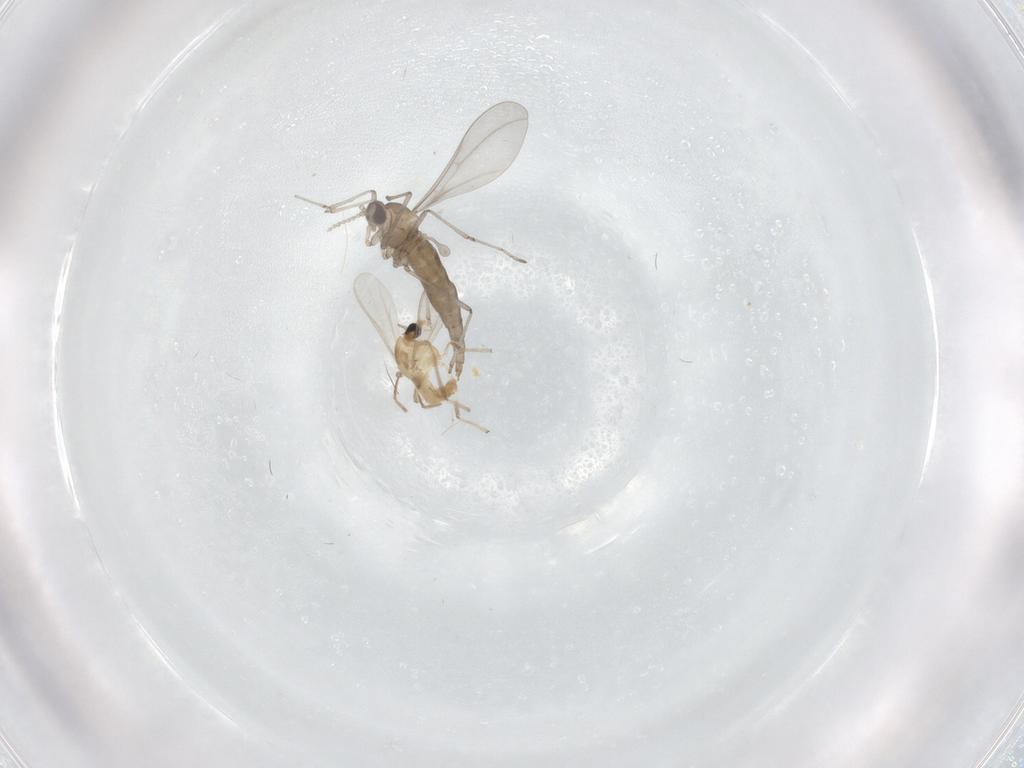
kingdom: Animalia
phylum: Arthropoda
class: Insecta
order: Diptera
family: Cecidomyiidae
